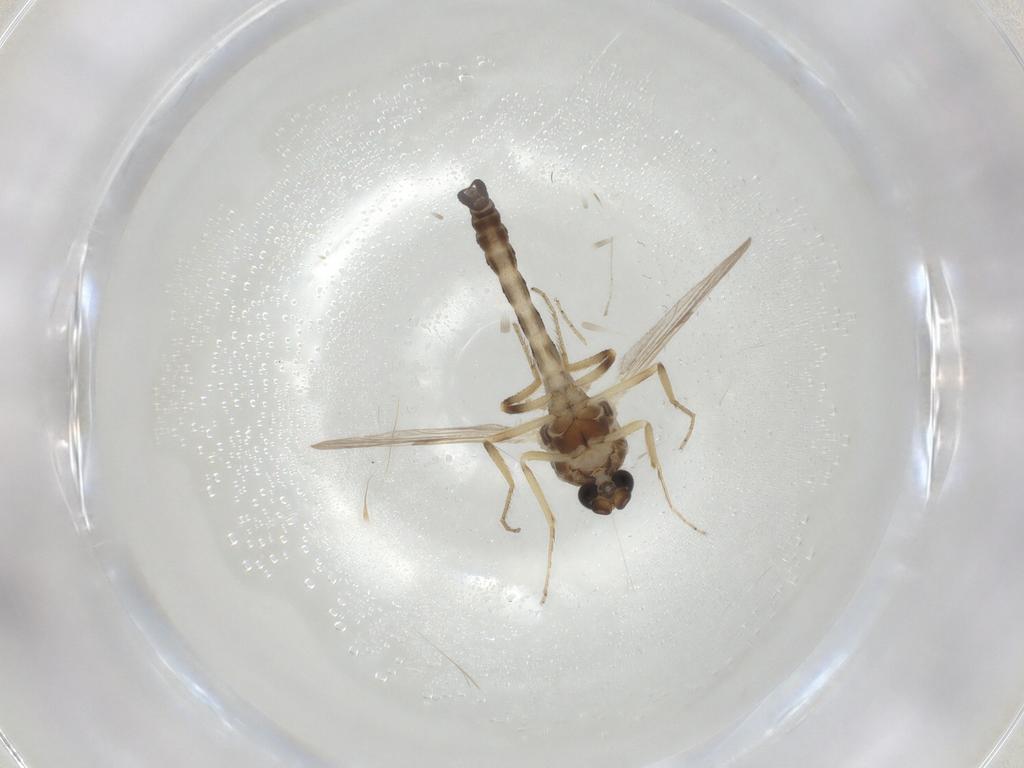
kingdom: Animalia
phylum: Arthropoda
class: Insecta
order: Diptera
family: Ceratopogonidae
